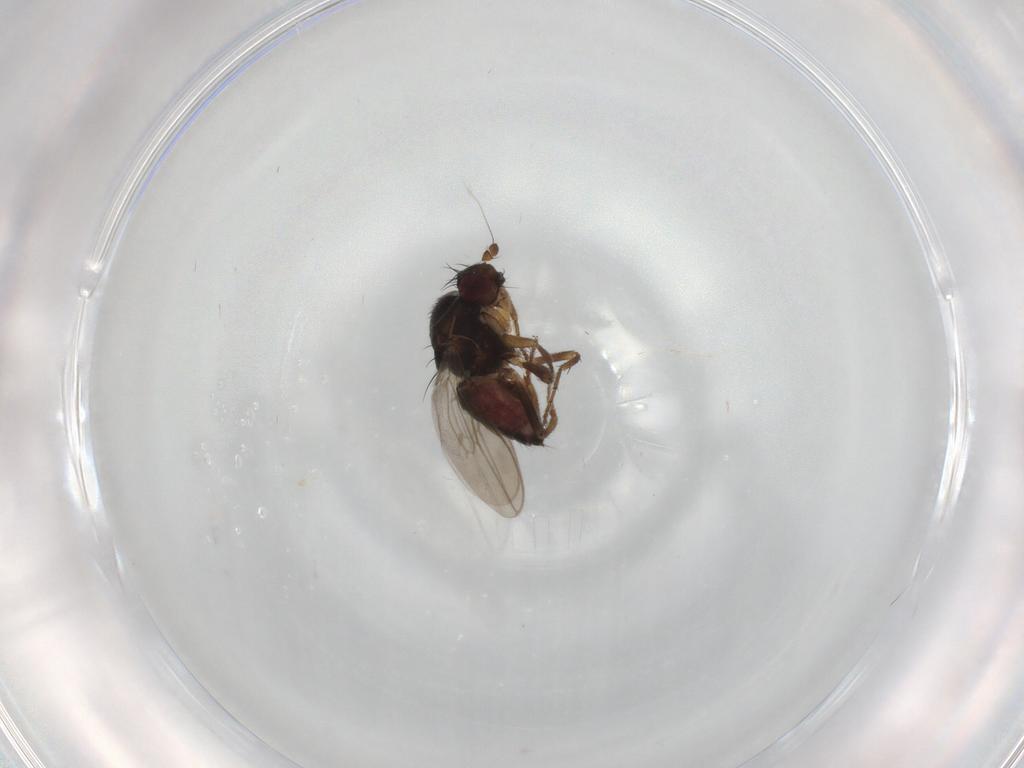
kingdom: Animalia
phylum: Arthropoda
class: Insecta
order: Diptera
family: Sphaeroceridae
